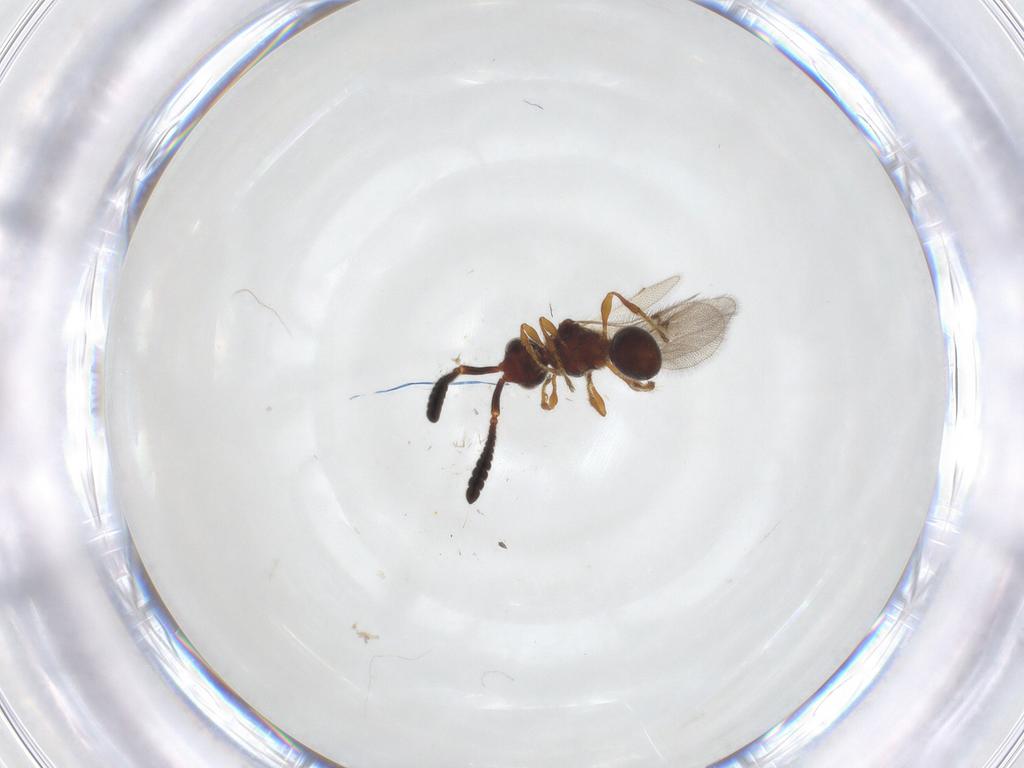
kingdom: Animalia
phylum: Arthropoda
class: Insecta
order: Hymenoptera
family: Diapriidae
